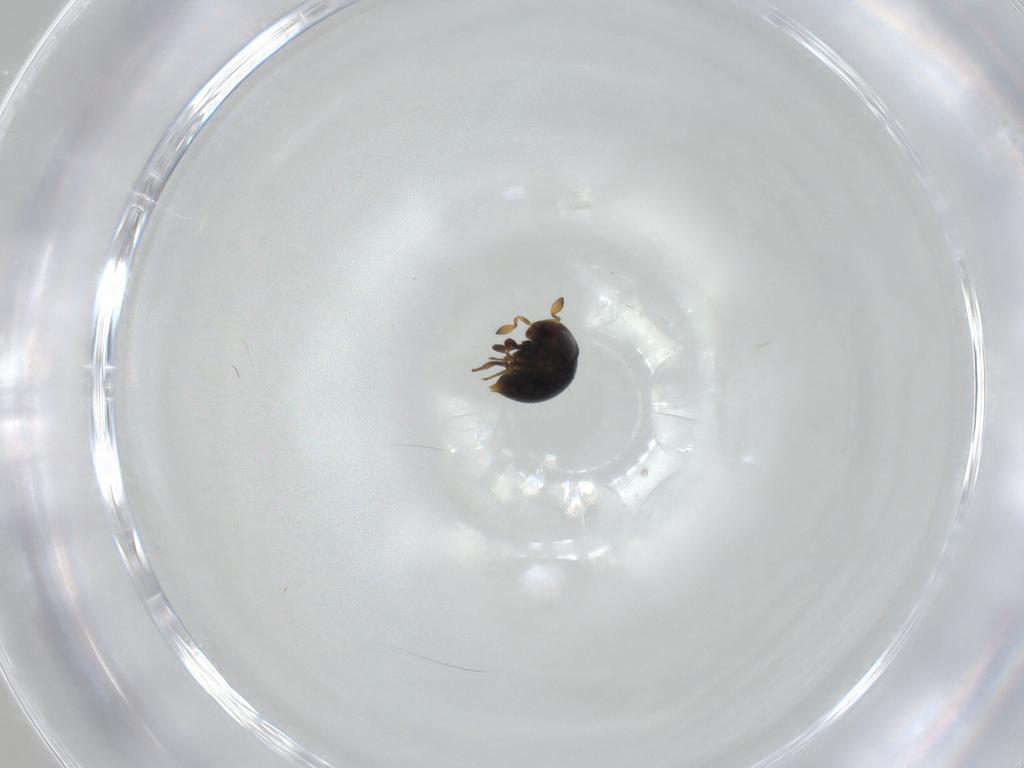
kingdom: Animalia
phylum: Arthropoda
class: Insecta
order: Hymenoptera
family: Scelionidae
